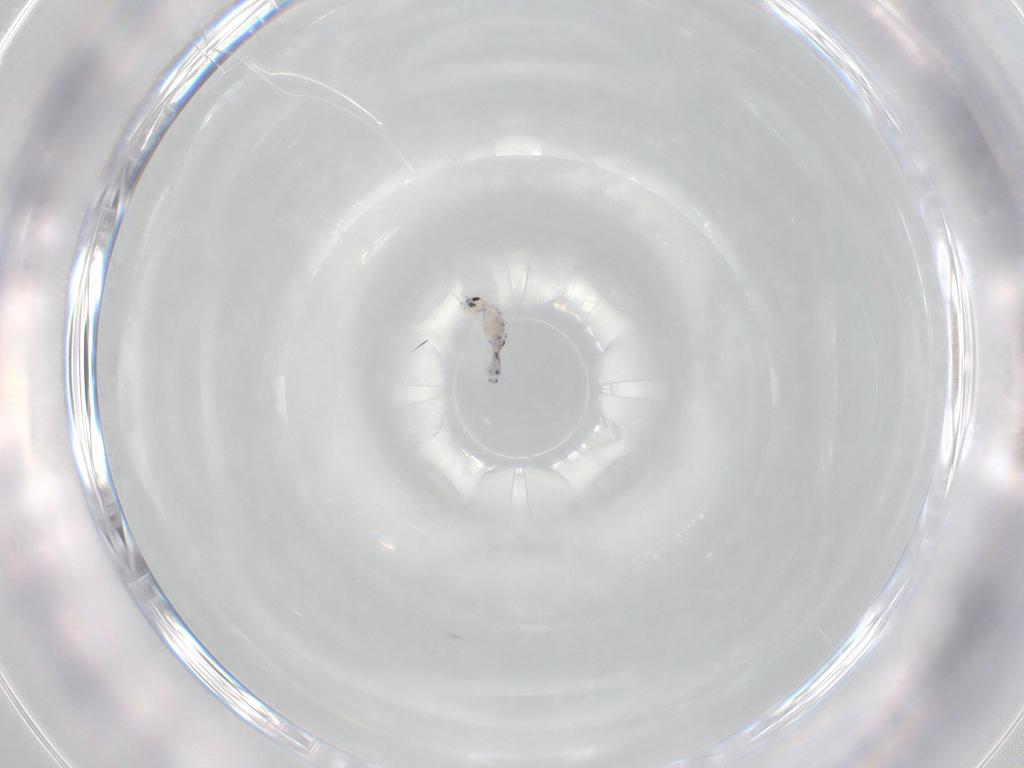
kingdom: Animalia
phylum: Arthropoda
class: Collembola
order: Entomobryomorpha
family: Entomobryidae
